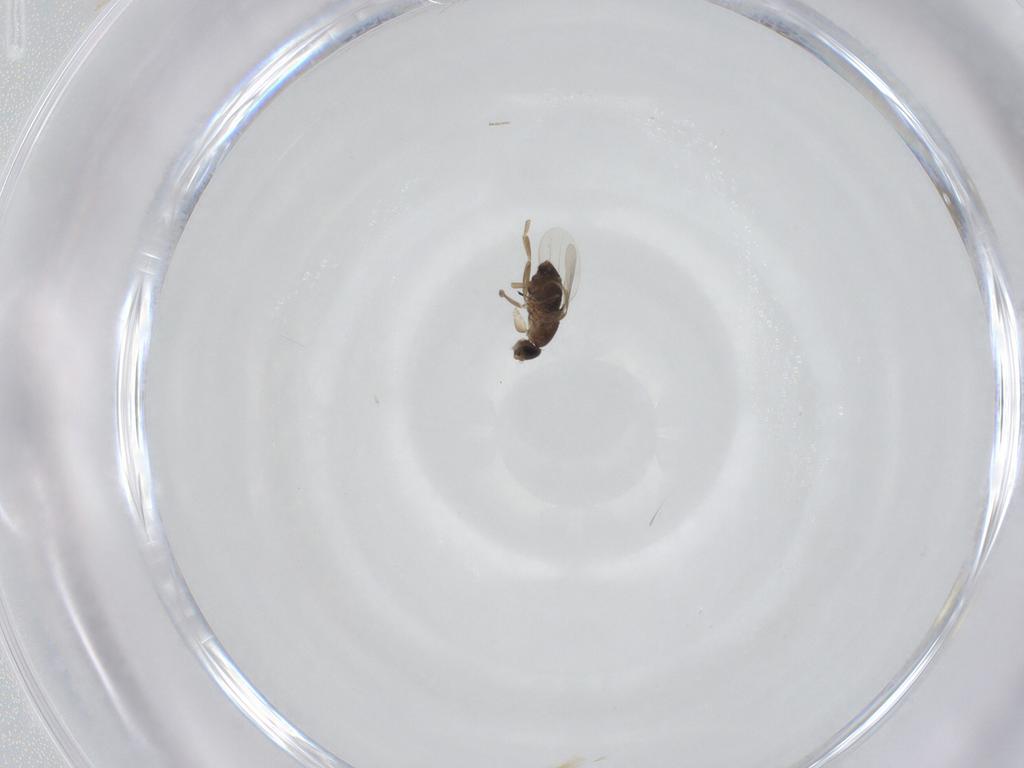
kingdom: Animalia
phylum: Arthropoda
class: Insecta
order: Diptera
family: Phoridae
